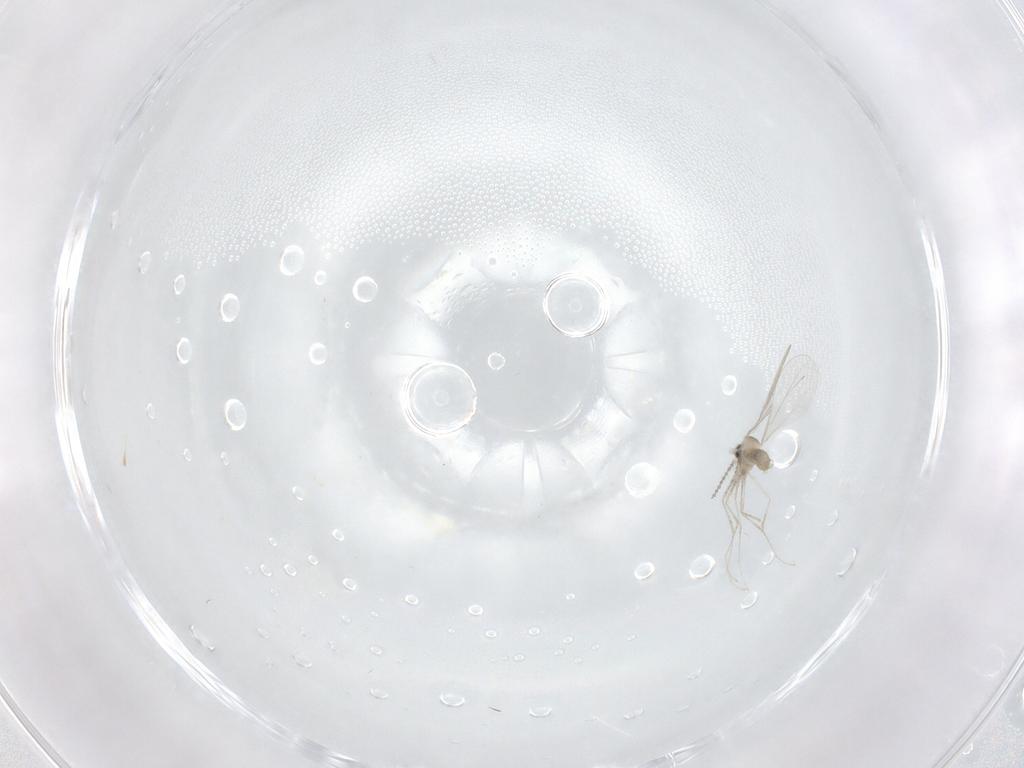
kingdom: Animalia
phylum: Arthropoda
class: Insecta
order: Diptera
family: Cecidomyiidae
